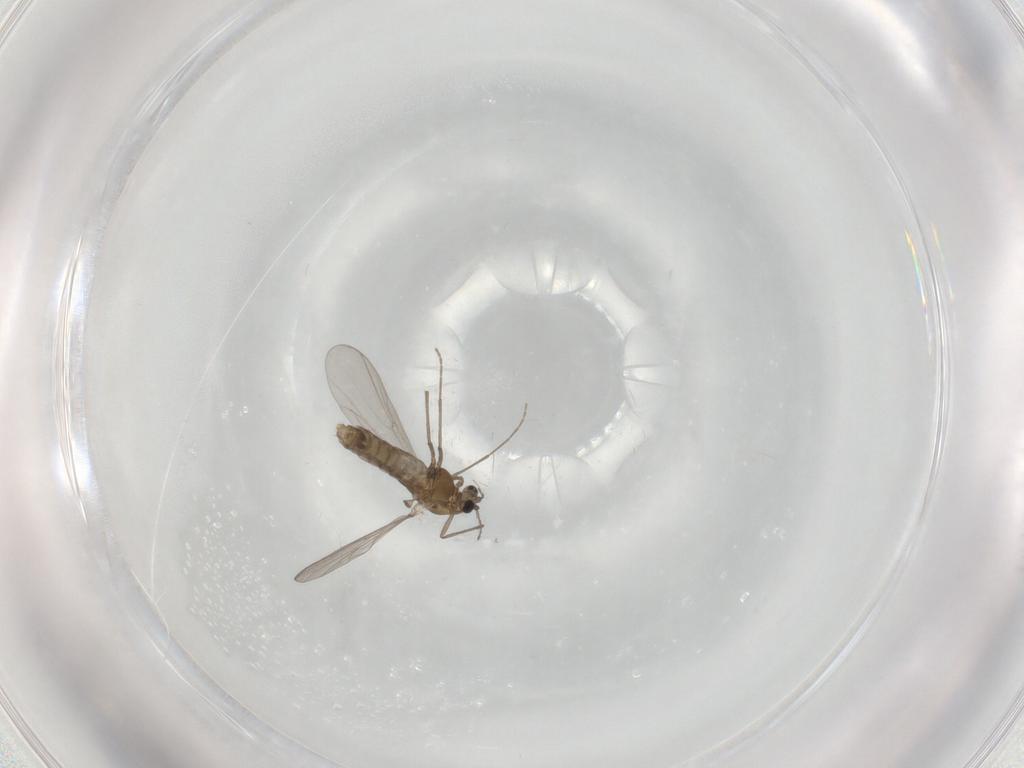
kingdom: Animalia
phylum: Arthropoda
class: Insecta
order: Diptera
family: Chironomidae
